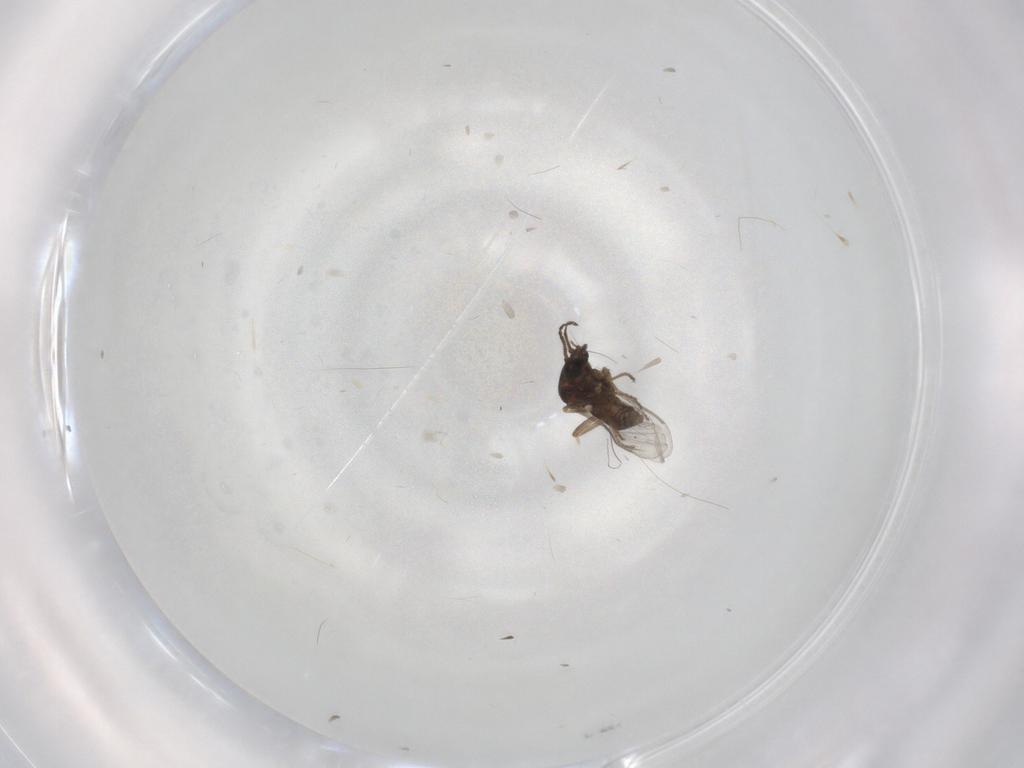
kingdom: Animalia
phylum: Arthropoda
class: Insecta
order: Diptera
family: Ceratopogonidae
